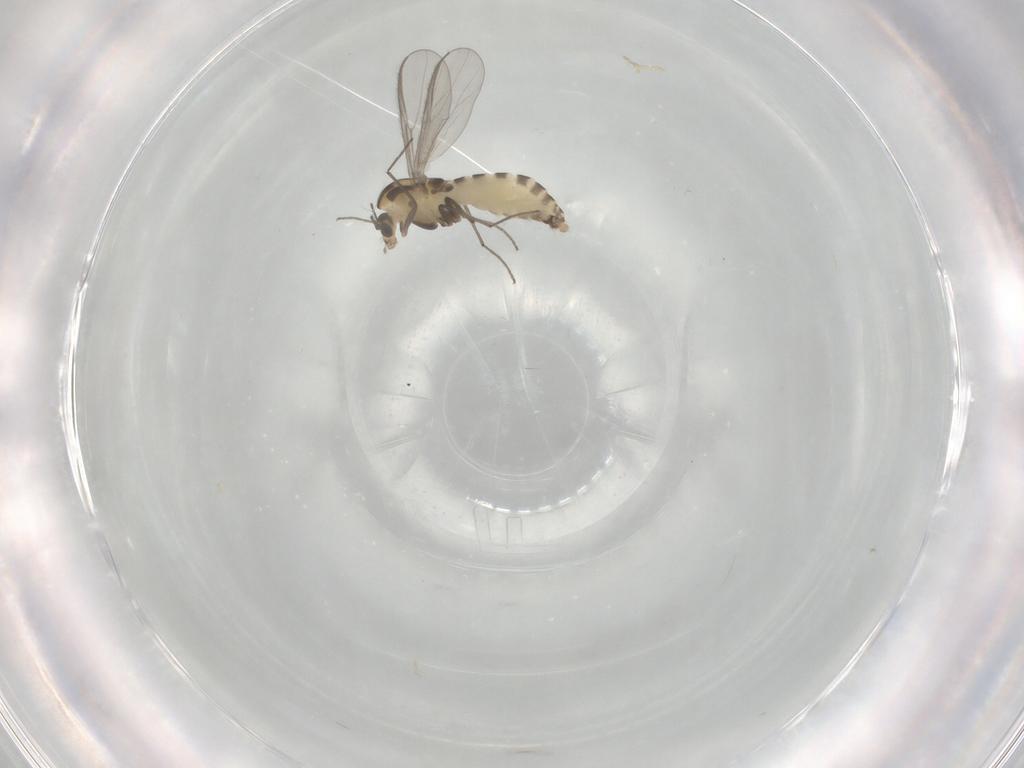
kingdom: Animalia
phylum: Arthropoda
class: Insecta
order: Diptera
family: Chironomidae
